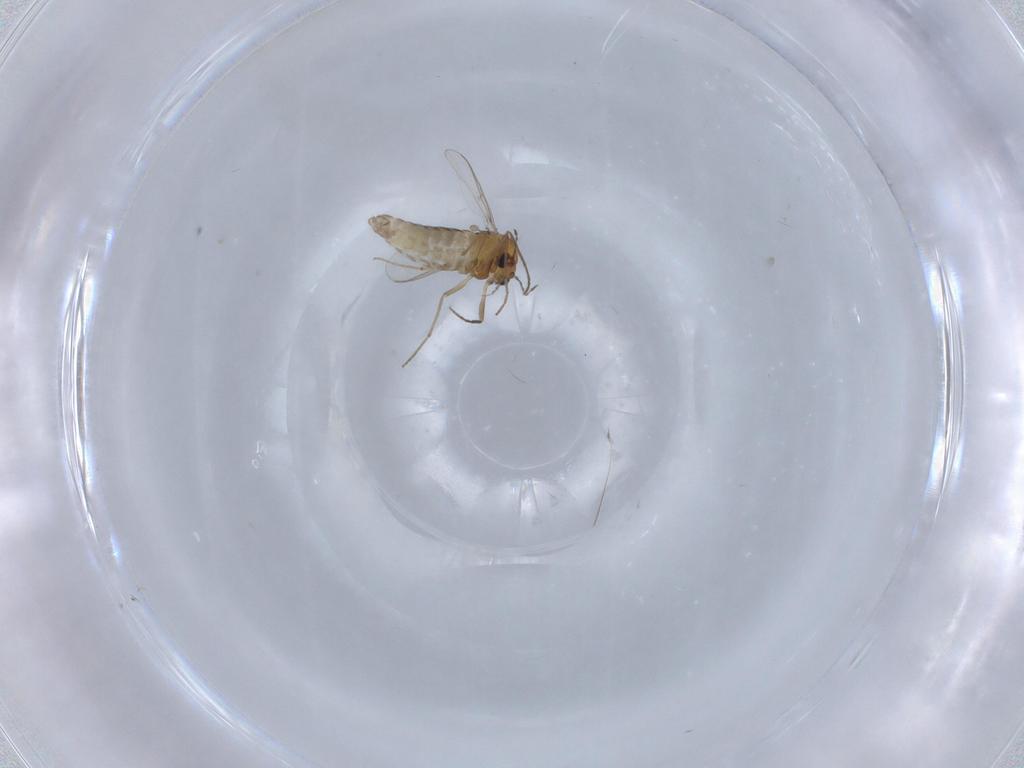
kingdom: Animalia
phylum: Arthropoda
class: Insecta
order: Diptera
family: Chironomidae
